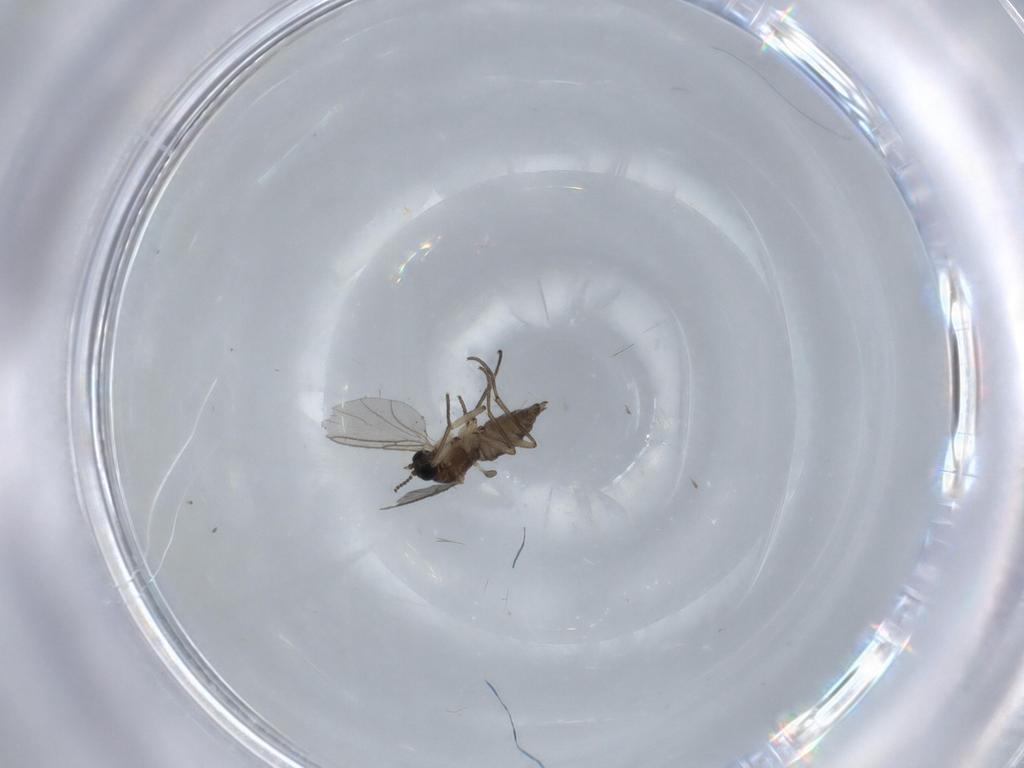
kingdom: Animalia
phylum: Arthropoda
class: Insecta
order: Diptera
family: Sciaridae
